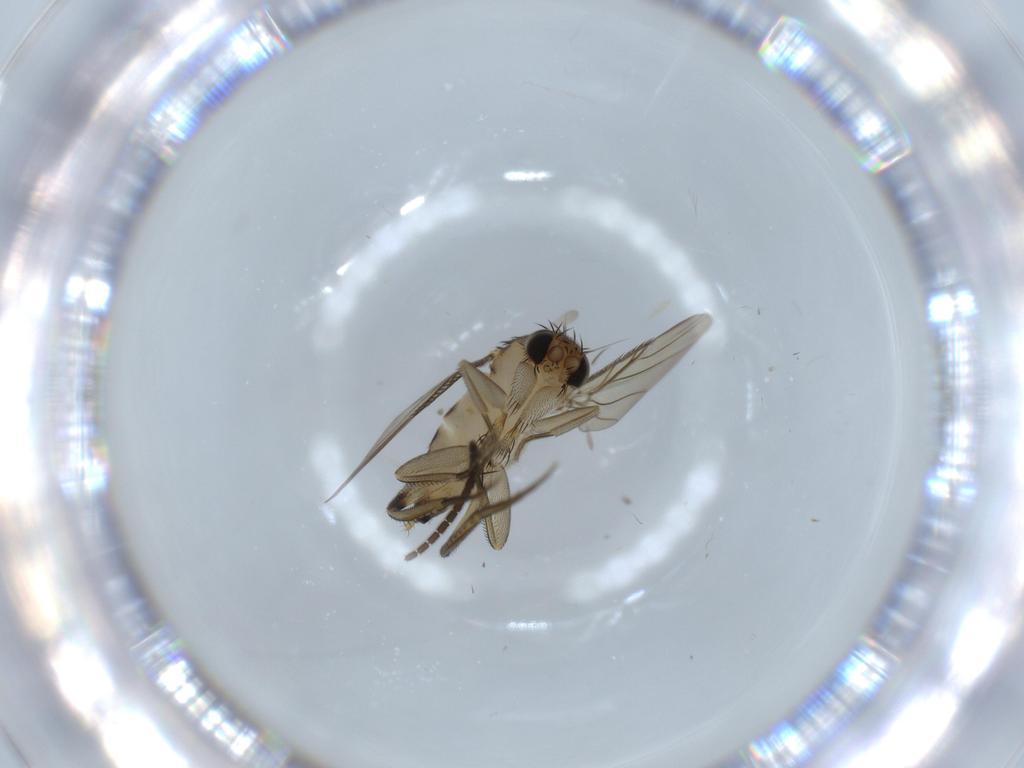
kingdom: Animalia
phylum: Arthropoda
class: Insecta
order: Diptera
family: Phoridae
